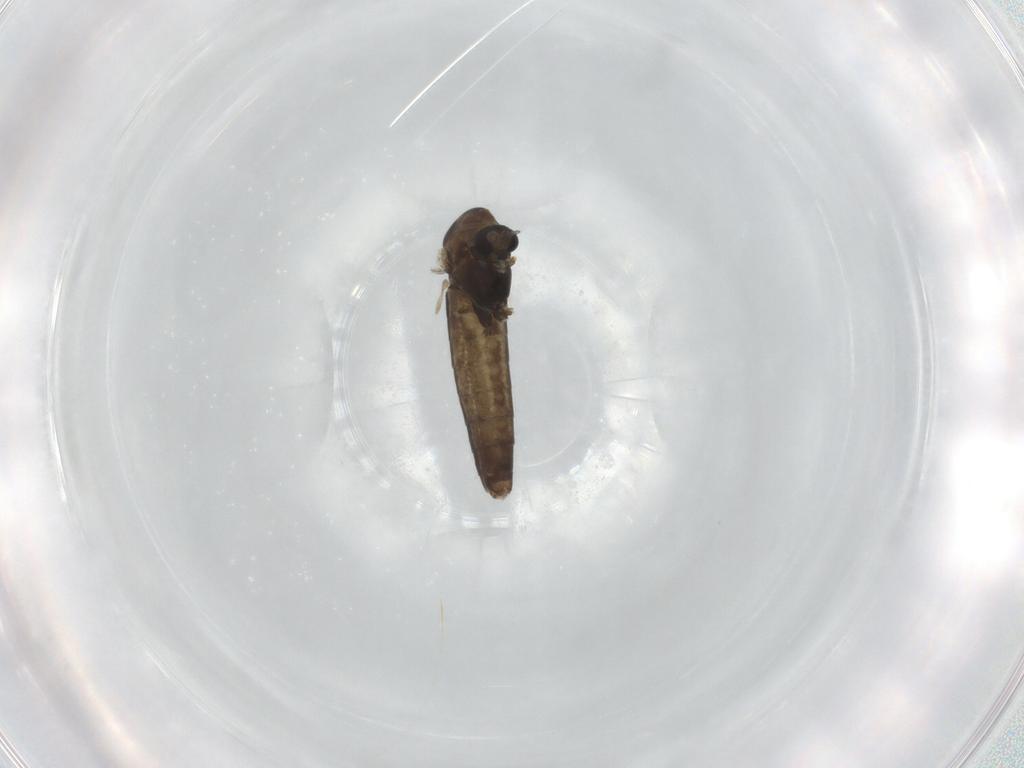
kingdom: Animalia
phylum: Arthropoda
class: Insecta
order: Diptera
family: Chironomidae
